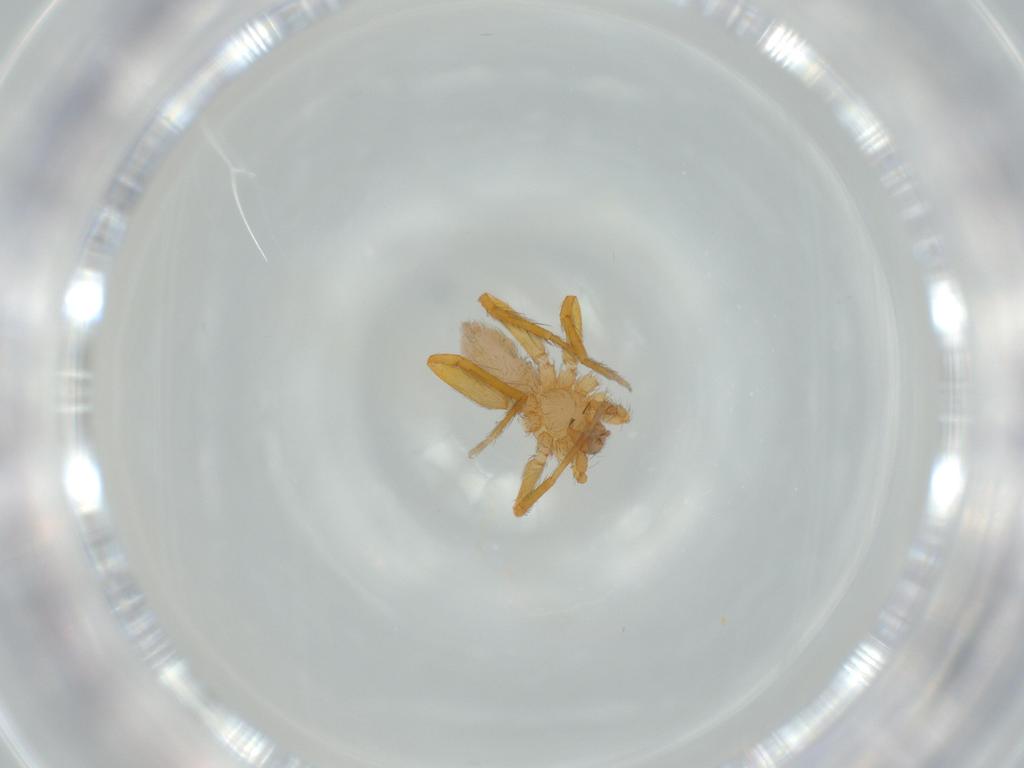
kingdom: Animalia
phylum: Arthropoda
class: Arachnida
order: Araneae
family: Oonopidae
